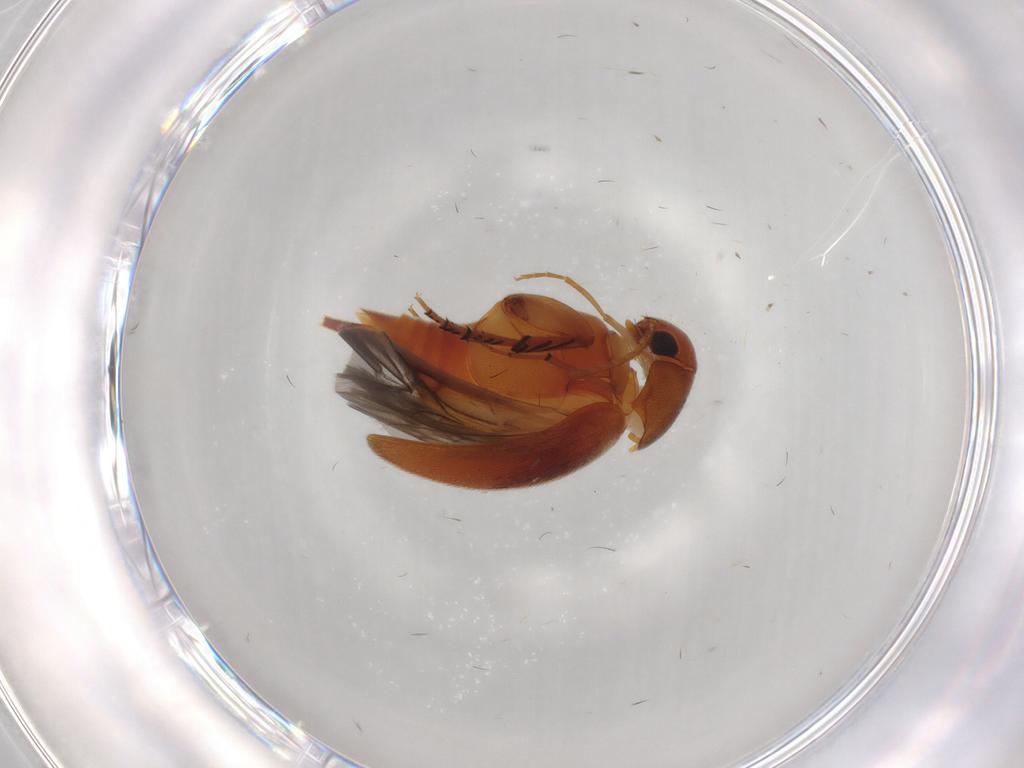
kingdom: Animalia
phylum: Arthropoda
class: Insecta
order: Coleoptera
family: Mordellidae
